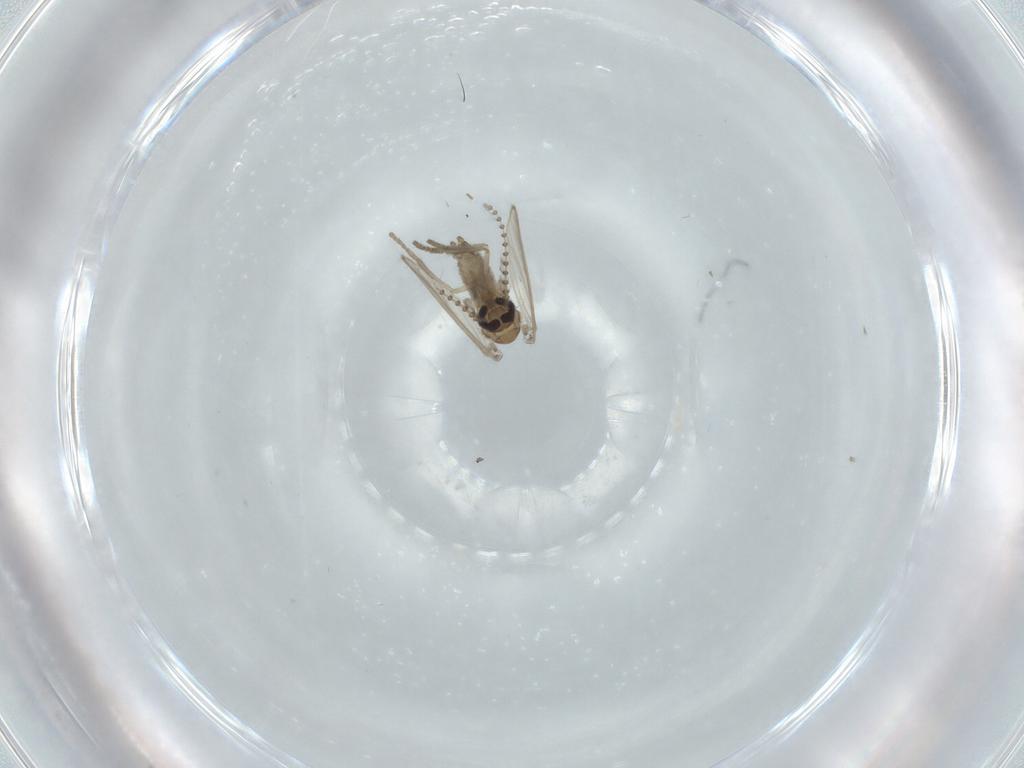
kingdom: Animalia
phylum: Arthropoda
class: Insecta
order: Diptera
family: Psychodidae
